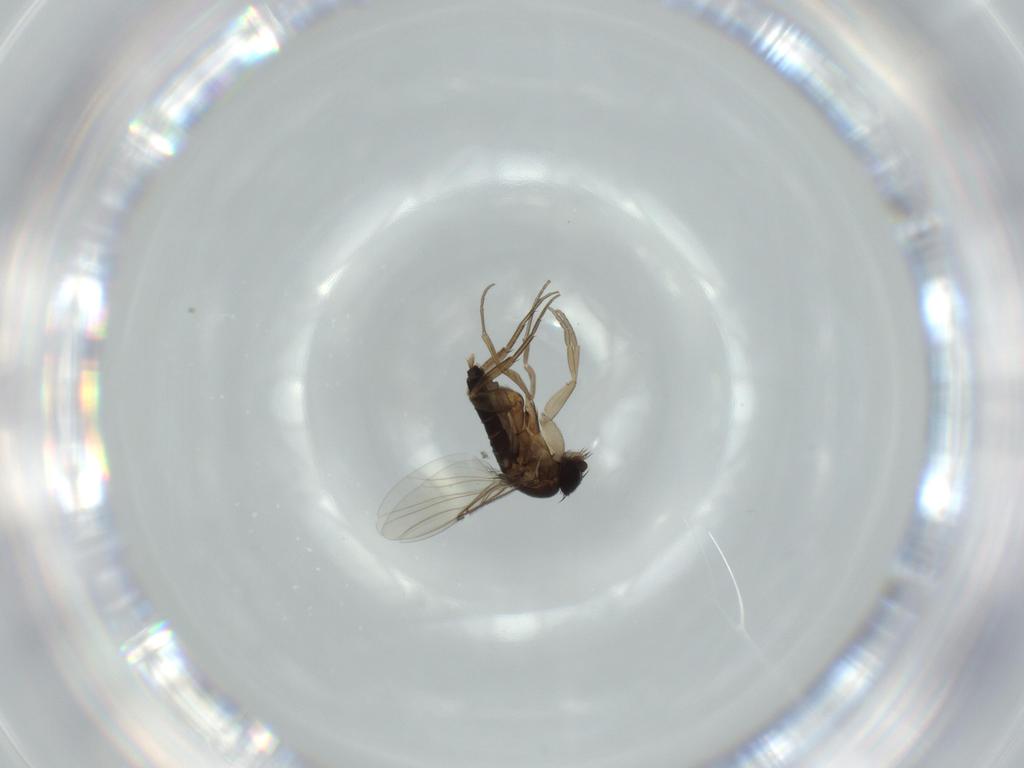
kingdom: Animalia
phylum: Arthropoda
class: Insecta
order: Diptera
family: Phoridae
